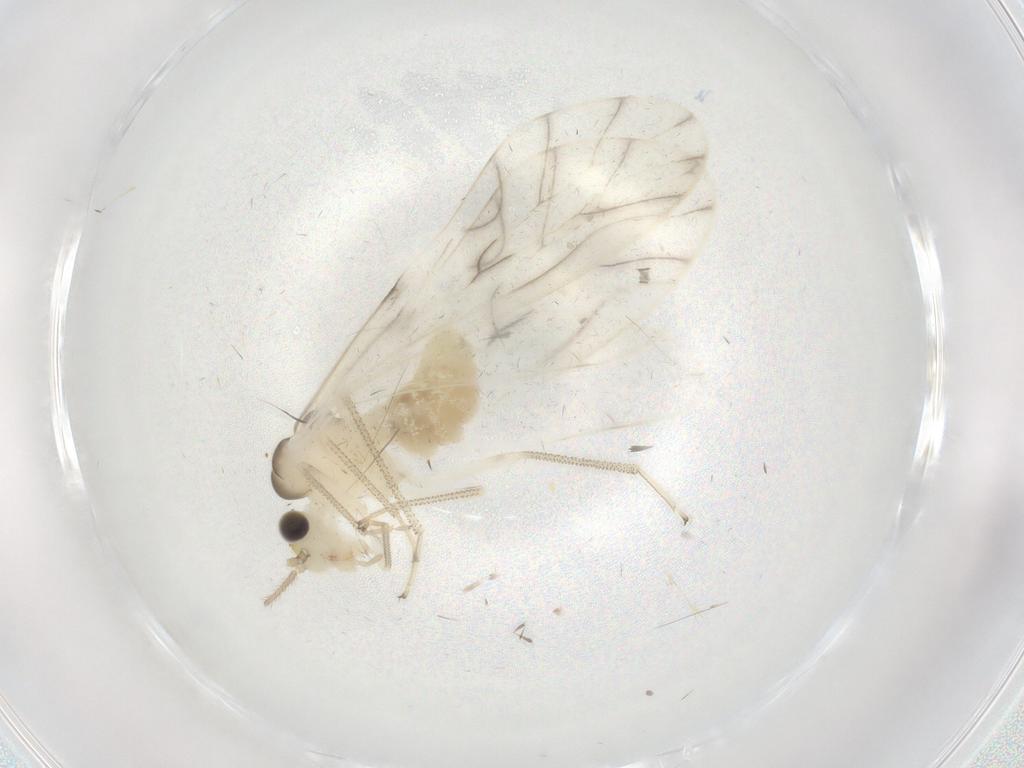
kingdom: Animalia
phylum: Arthropoda
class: Insecta
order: Psocodea
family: Caeciliusidae
